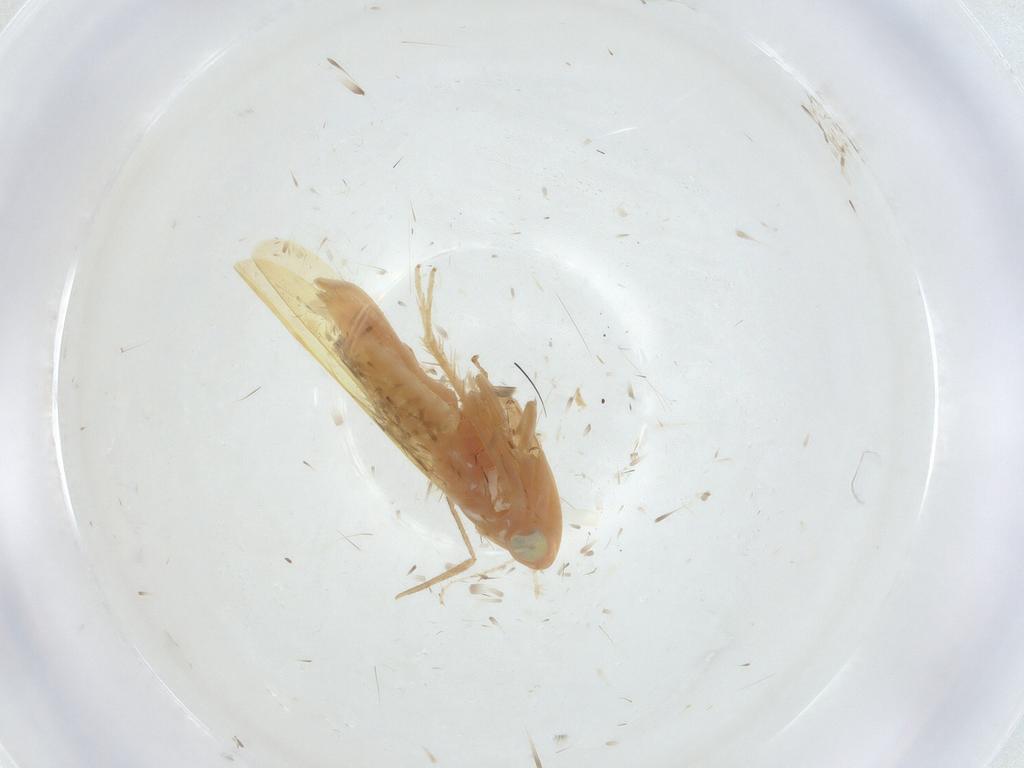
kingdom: Animalia
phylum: Arthropoda
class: Insecta
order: Hemiptera
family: Cicadellidae
